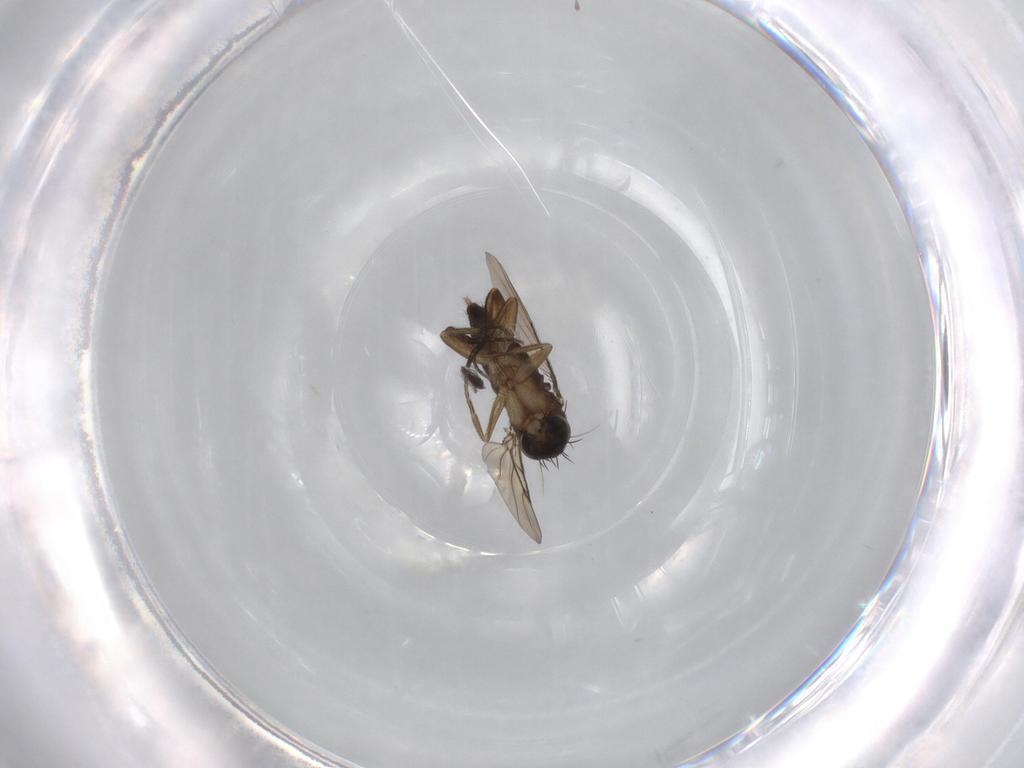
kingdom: Animalia
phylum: Arthropoda
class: Insecta
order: Diptera
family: Phoridae
